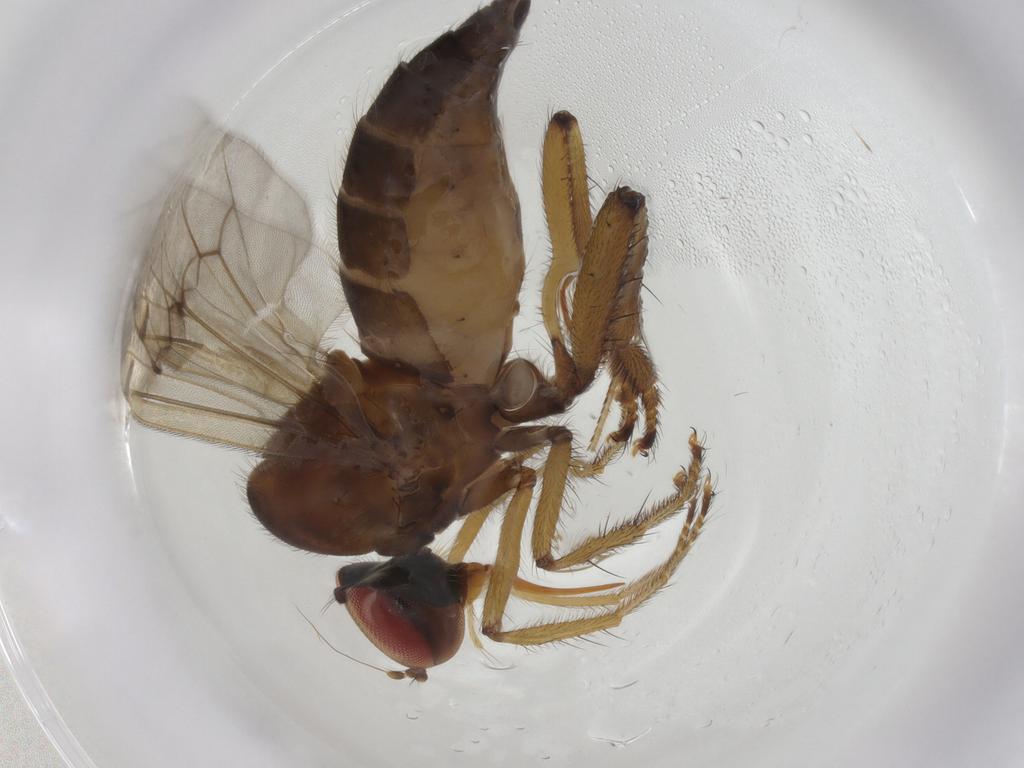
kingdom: Animalia
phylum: Arthropoda
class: Insecta
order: Diptera
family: Hybotidae
